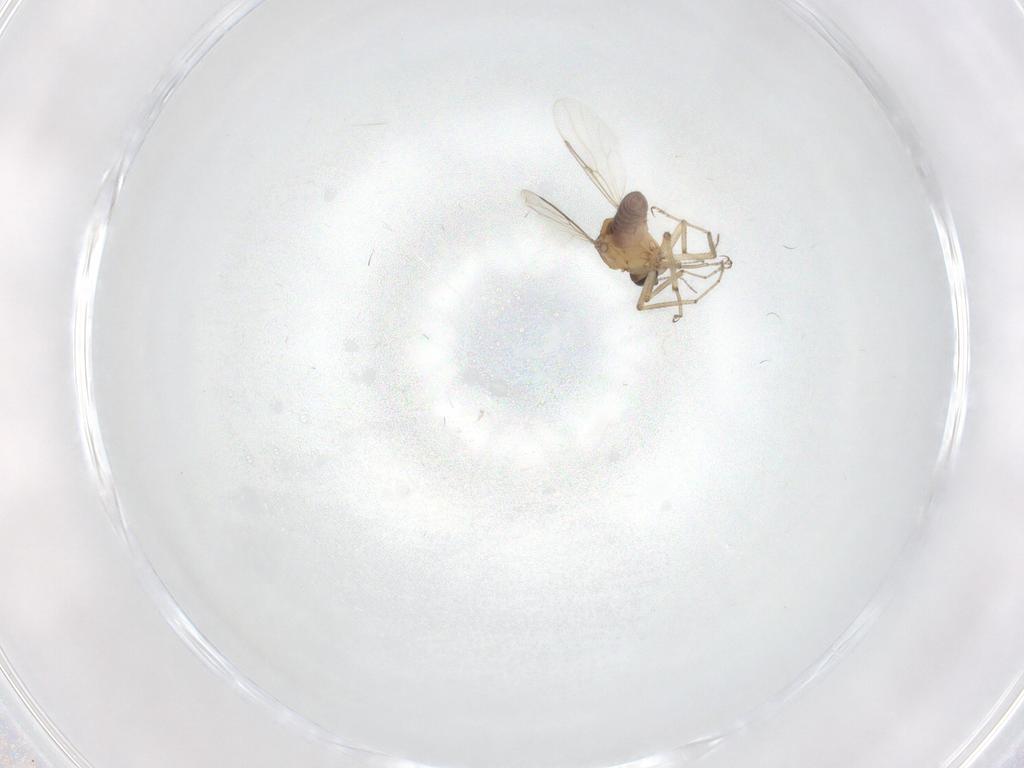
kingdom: Animalia
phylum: Arthropoda
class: Insecta
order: Diptera
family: Ceratopogonidae
